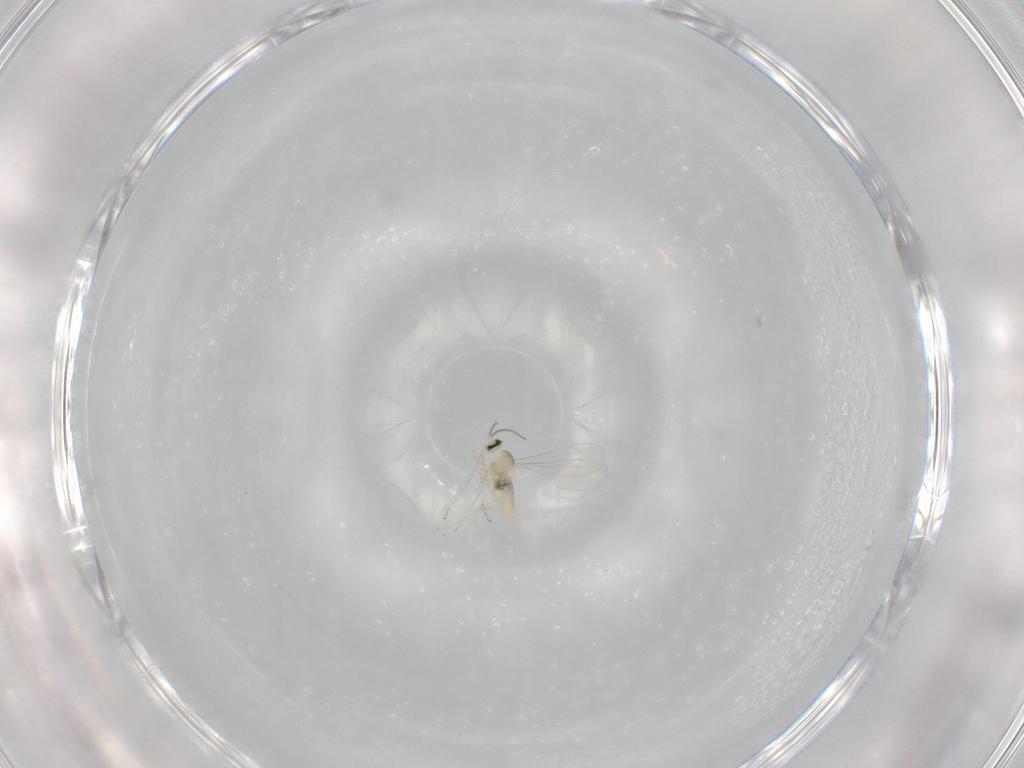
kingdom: Animalia
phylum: Arthropoda
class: Insecta
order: Diptera
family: Cecidomyiidae
